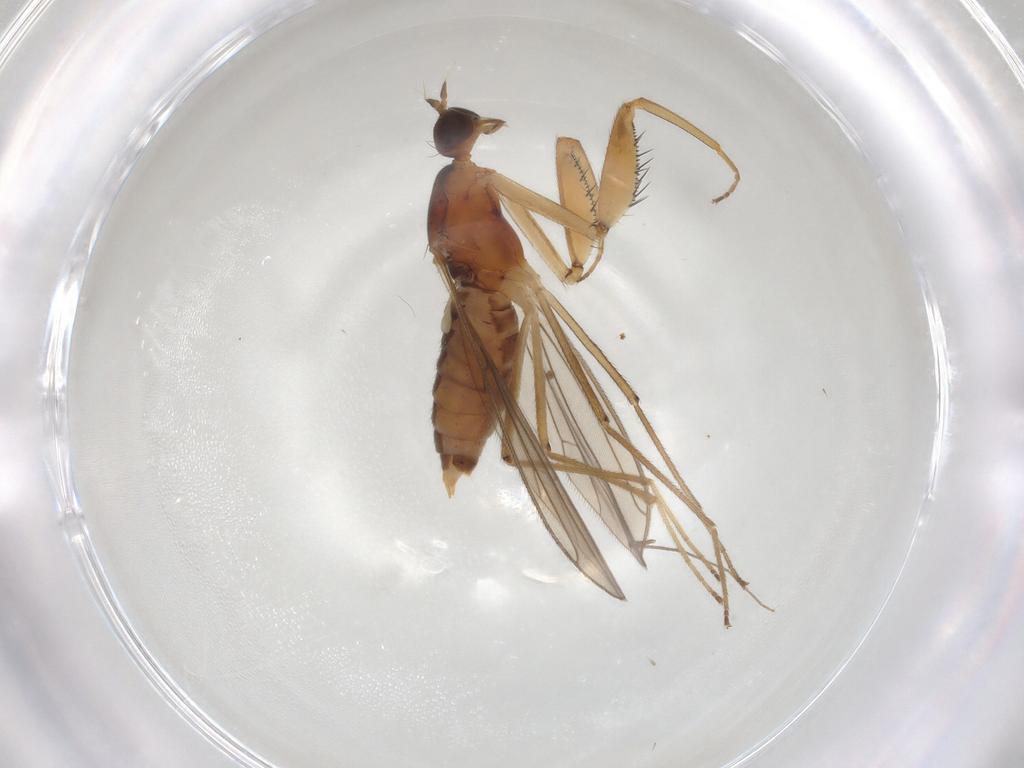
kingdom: Animalia
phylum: Arthropoda
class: Insecta
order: Diptera
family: Empididae
